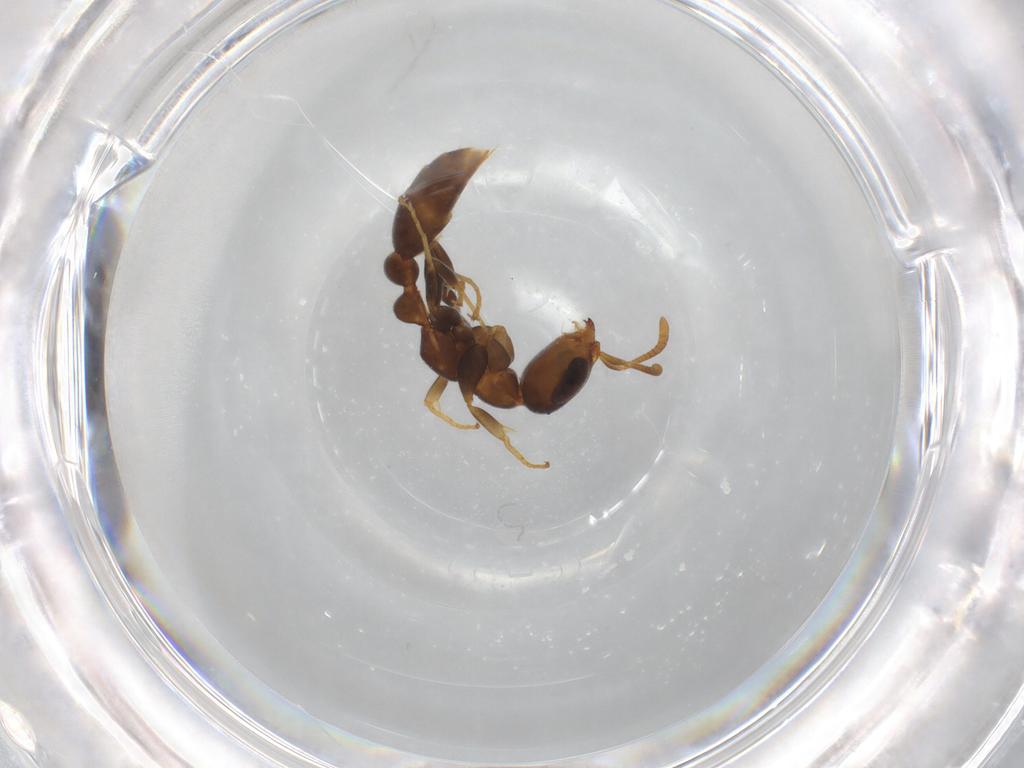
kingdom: Animalia
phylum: Arthropoda
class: Insecta
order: Hymenoptera
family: Formicidae
